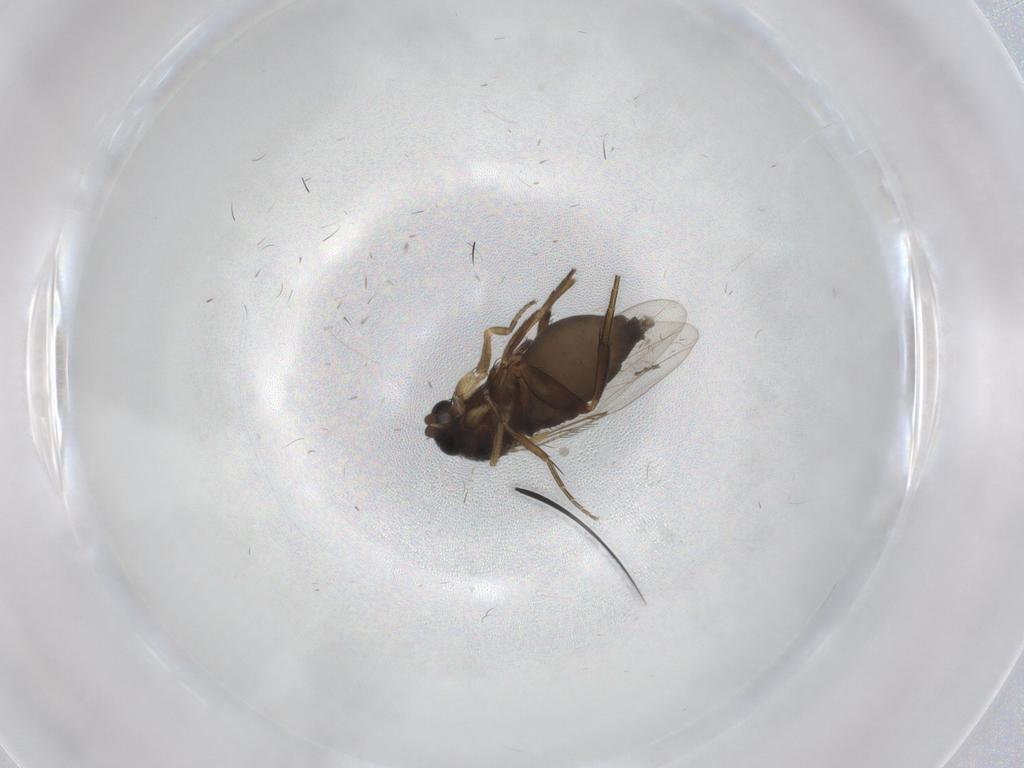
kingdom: Animalia
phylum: Arthropoda
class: Insecta
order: Diptera
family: Phoridae
